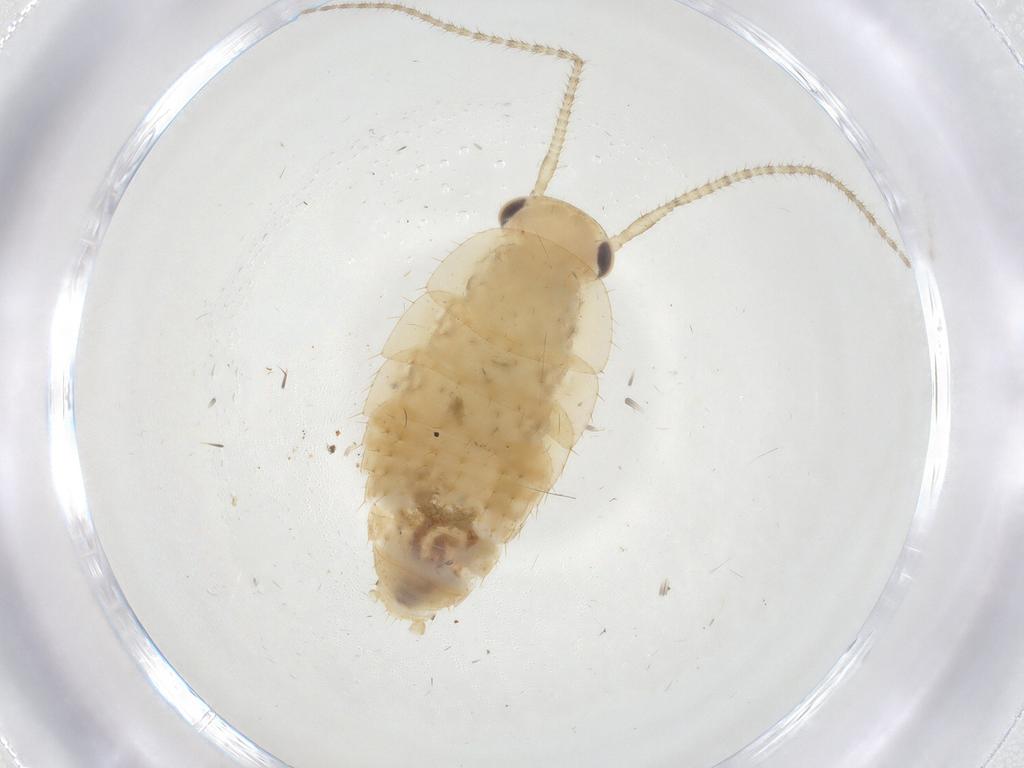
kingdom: Animalia
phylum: Arthropoda
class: Insecta
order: Blattodea
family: Ectobiidae
